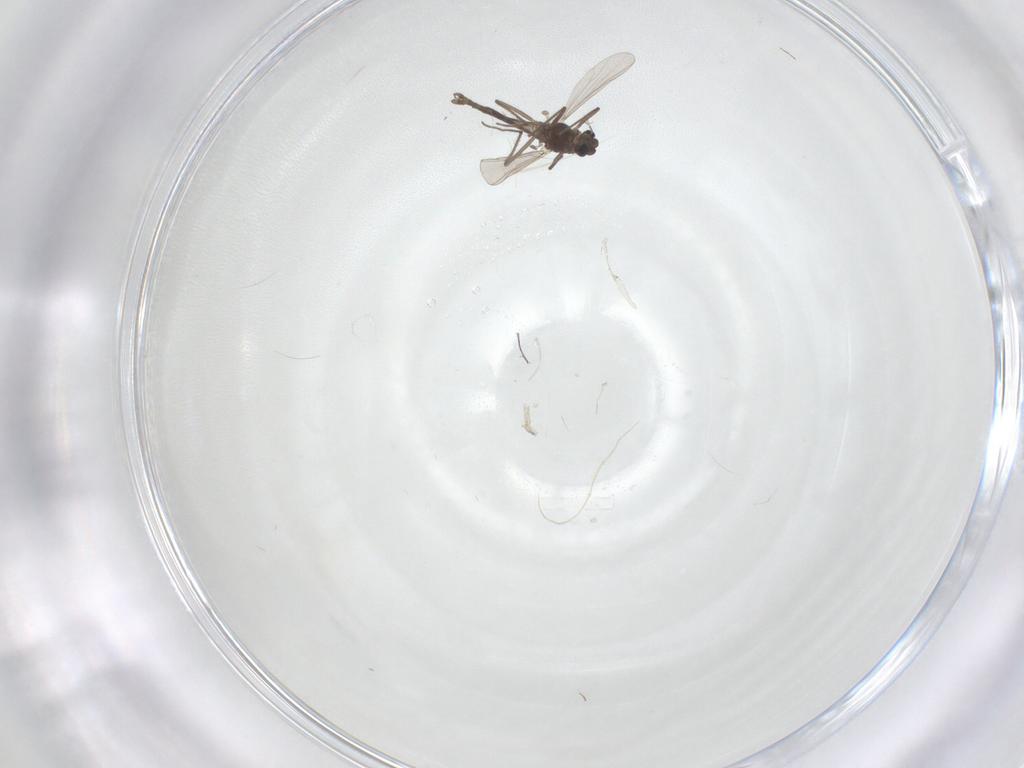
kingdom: Animalia
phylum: Arthropoda
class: Insecta
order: Diptera
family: Chironomidae
